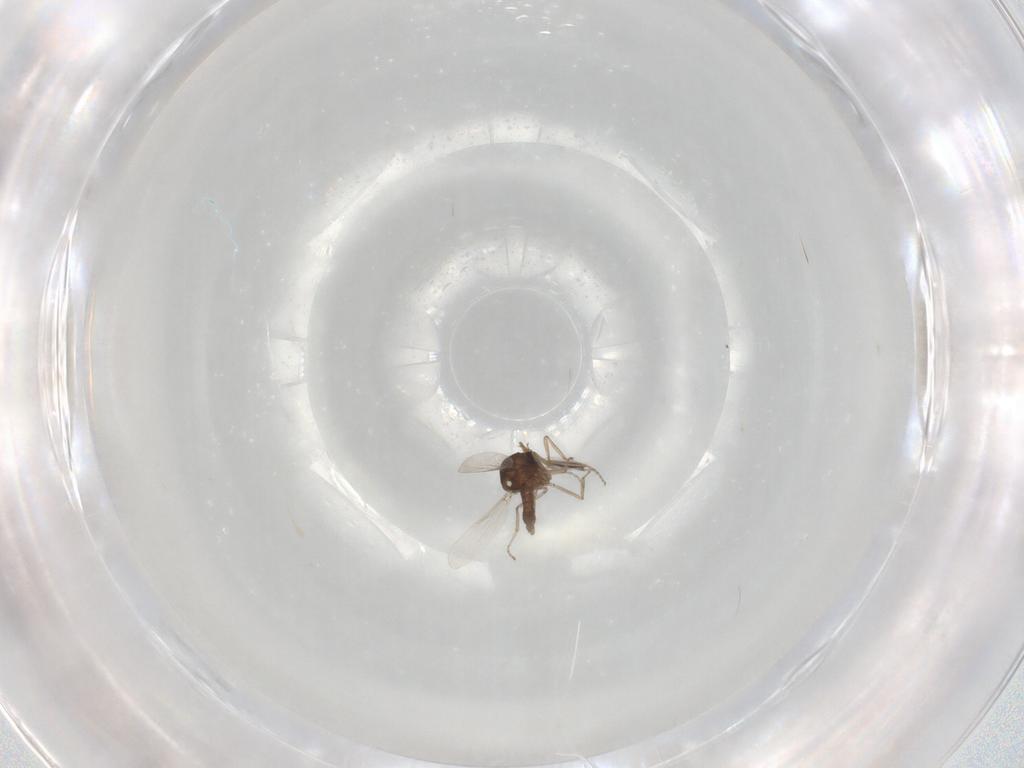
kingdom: Animalia
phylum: Arthropoda
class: Insecta
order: Diptera
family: Ceratopogonidae
